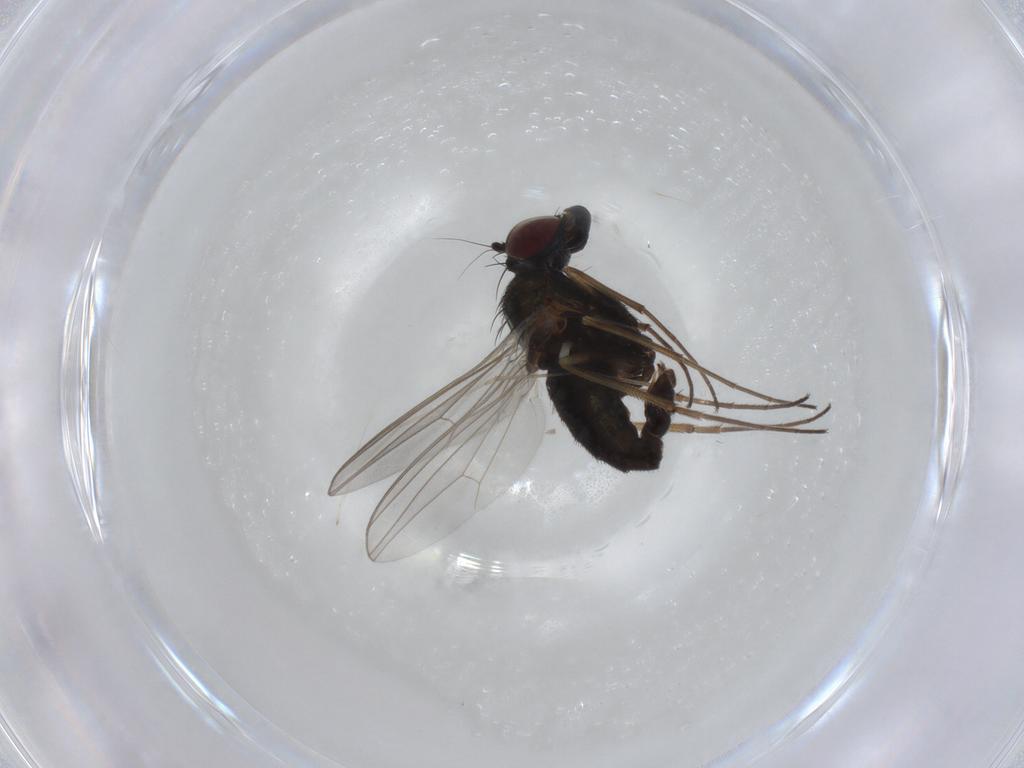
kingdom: Animalia
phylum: Arthropoda
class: Insecta
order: Diptera
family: Dolichopodidae
